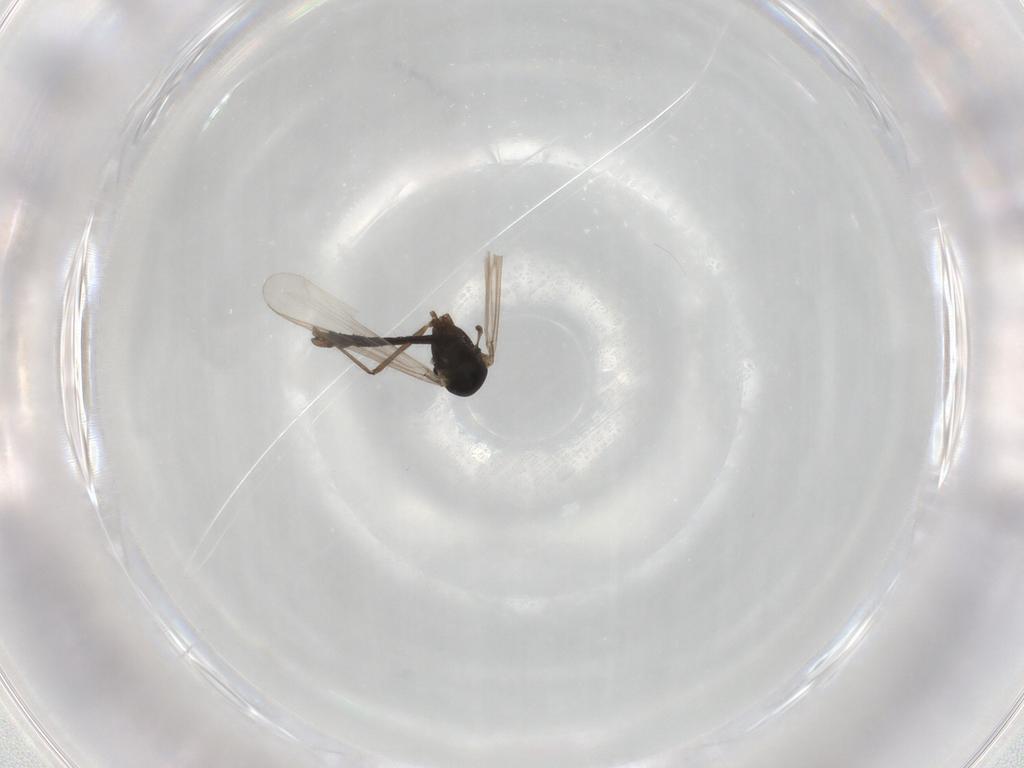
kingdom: Animalia
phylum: Arthropoda
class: Insecta
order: Diptera
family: Chironomidae
